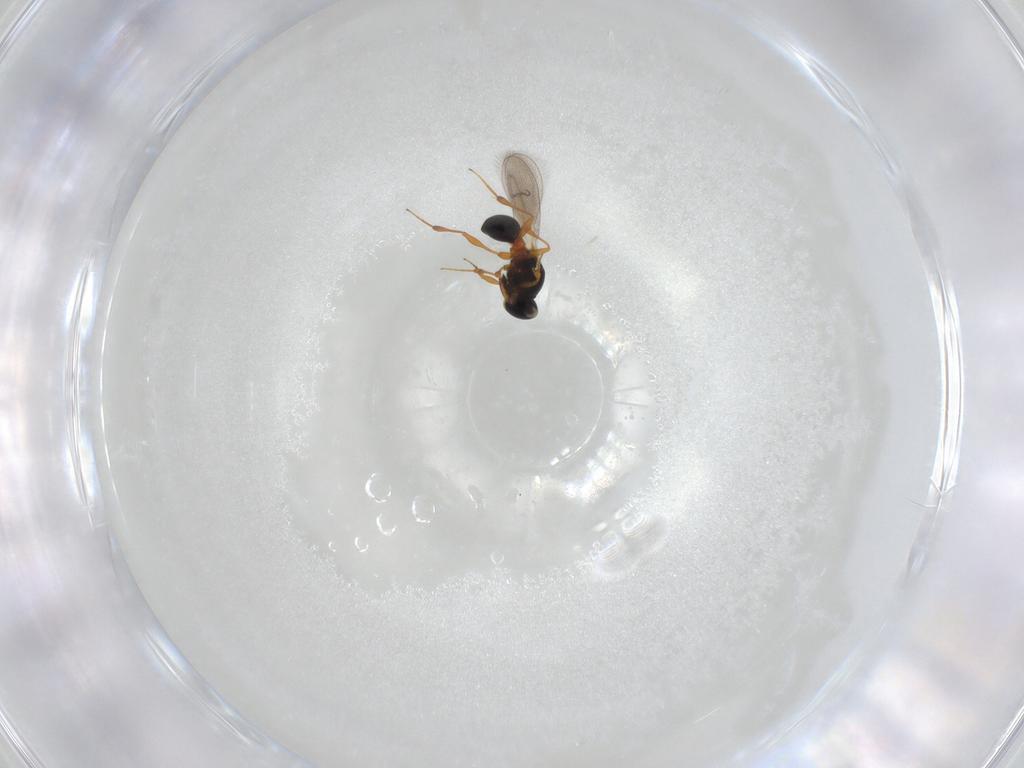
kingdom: Animalia
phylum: Arthropoda
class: Insecta
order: Hymenoptera
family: Platygastridae
